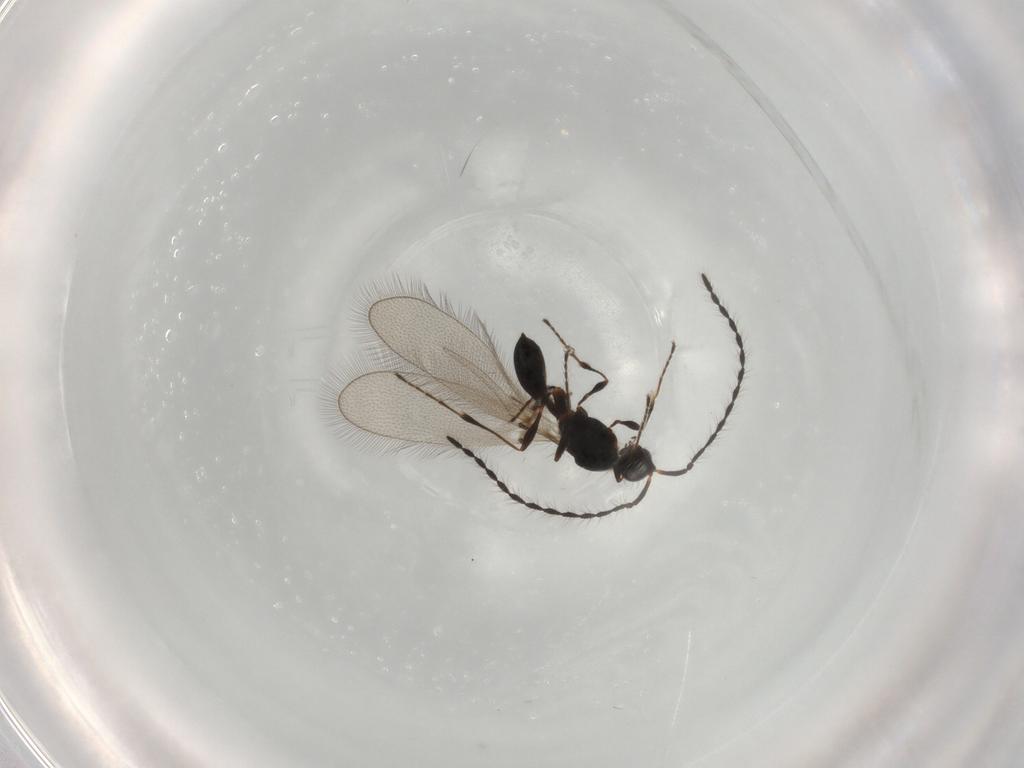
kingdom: Animalia
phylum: Arthropoda
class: Insecta
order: Hymenoptera
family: Diapriidae
